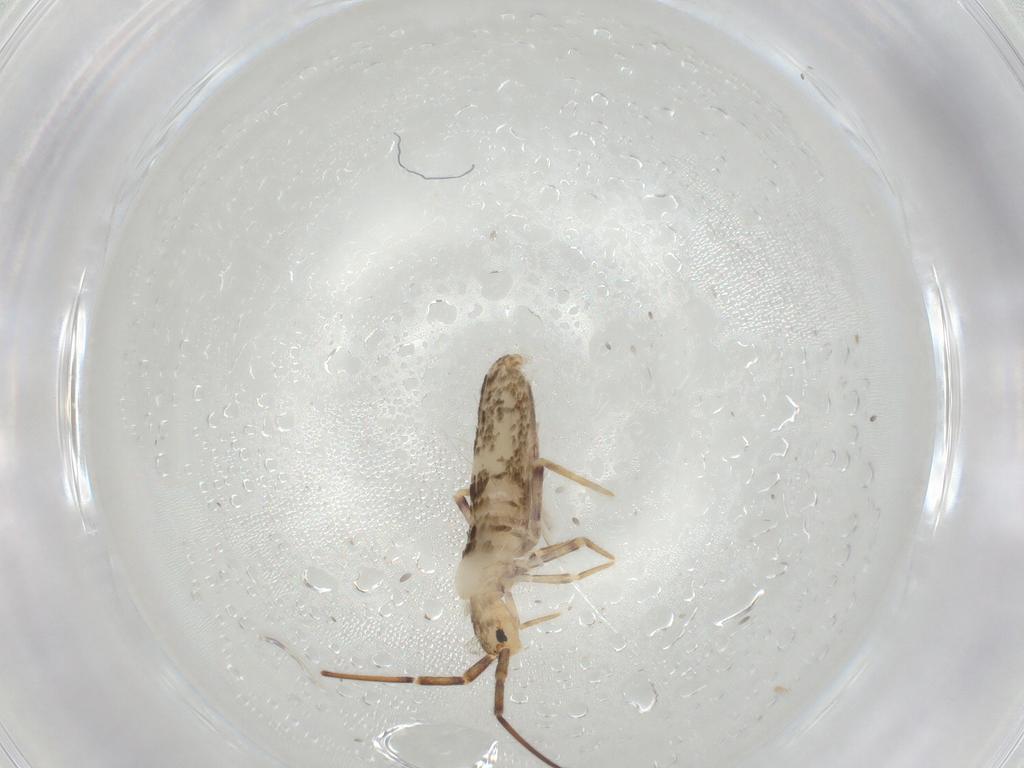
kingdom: Animalia
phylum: Arthropoda
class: Collembola
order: Poduromorpha
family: Hypogastruridae
